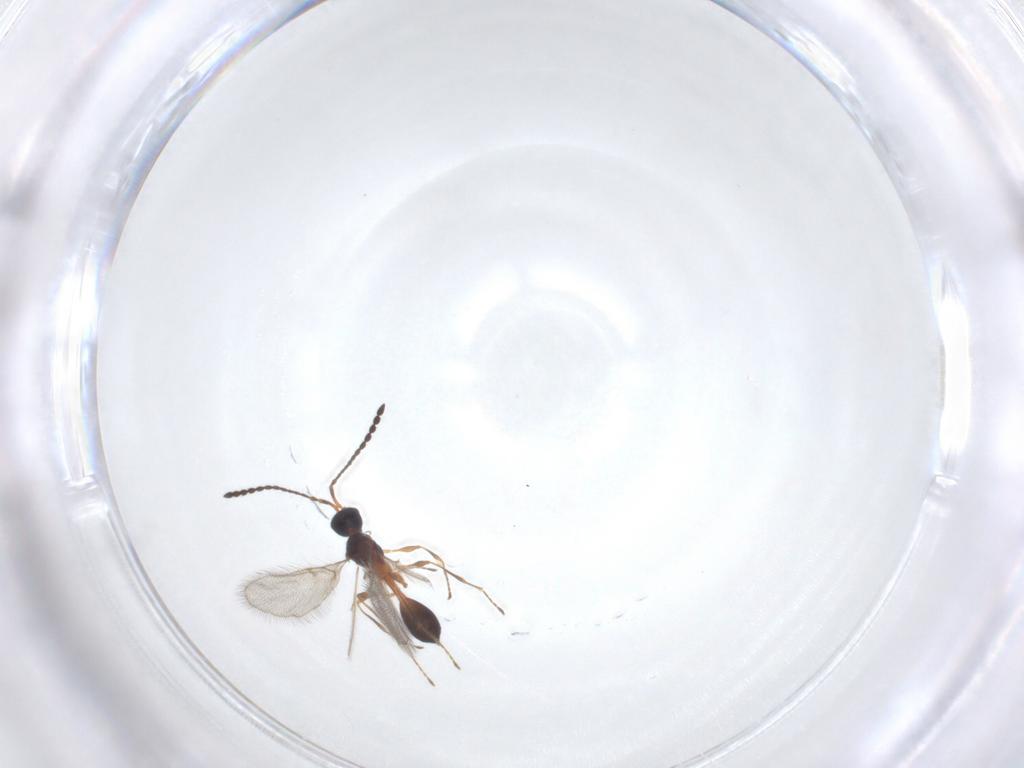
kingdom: Animalia
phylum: Arthropoda
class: Insecta
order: Hymenoptera
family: Diapriidae
